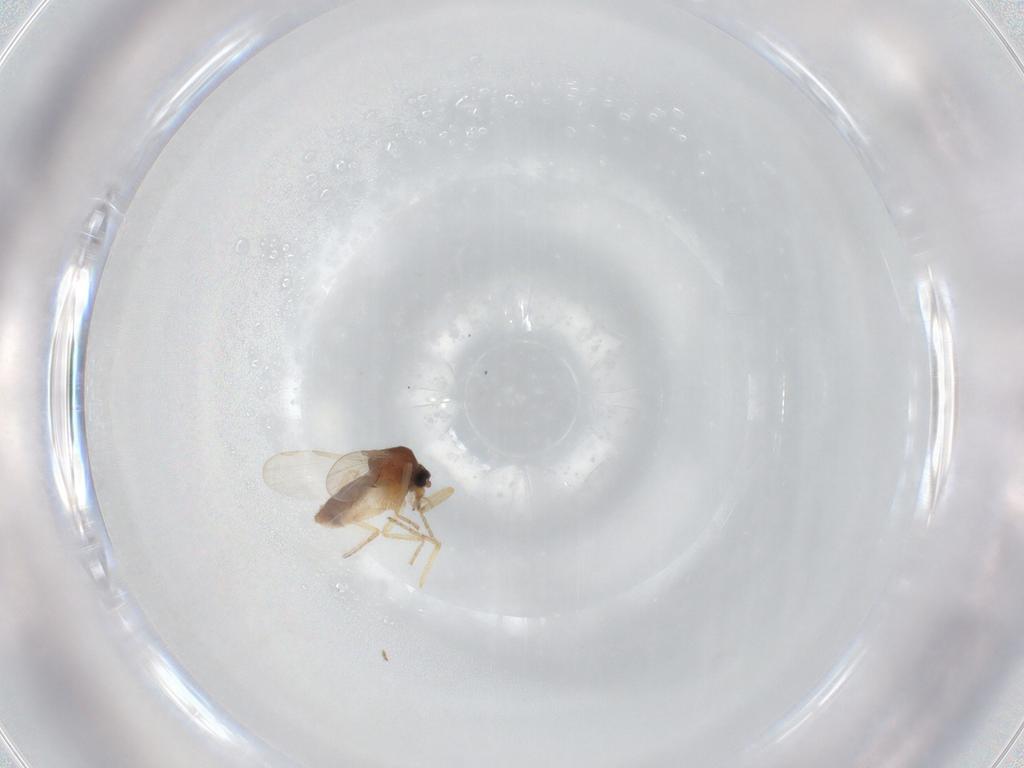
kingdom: Animalia
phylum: Arthropoda
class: Insecta
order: Diptera
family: Ceratopogonidae
